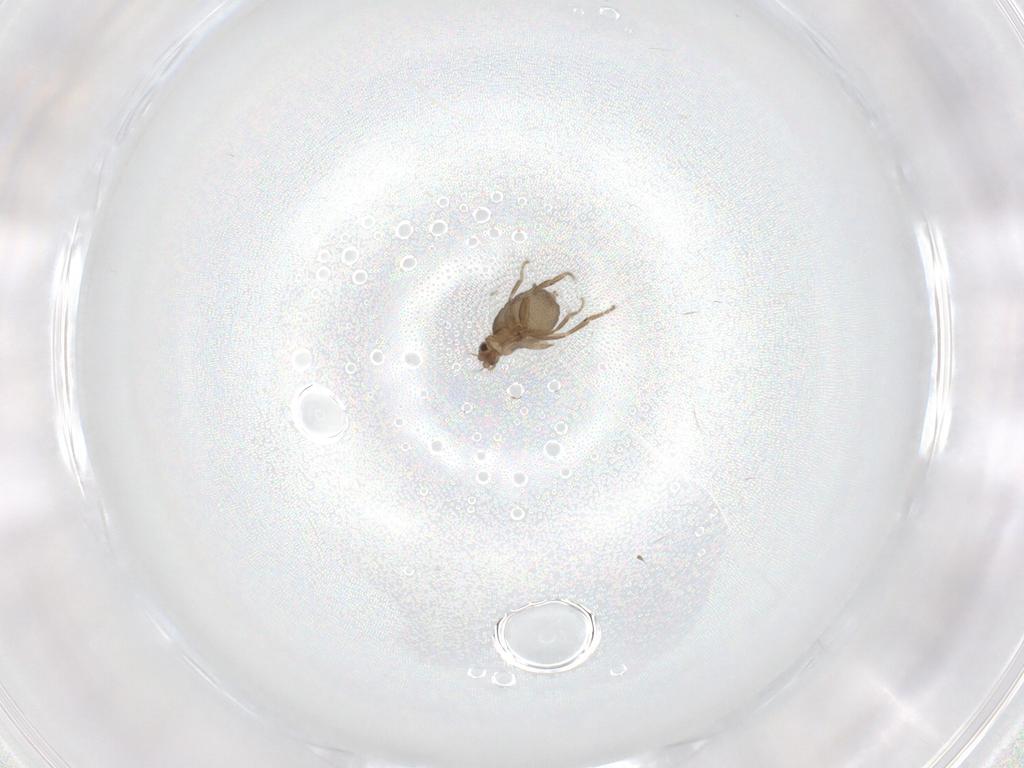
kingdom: Animalia
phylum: Arthropoda
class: Insecta
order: Diptera
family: Phoridae
